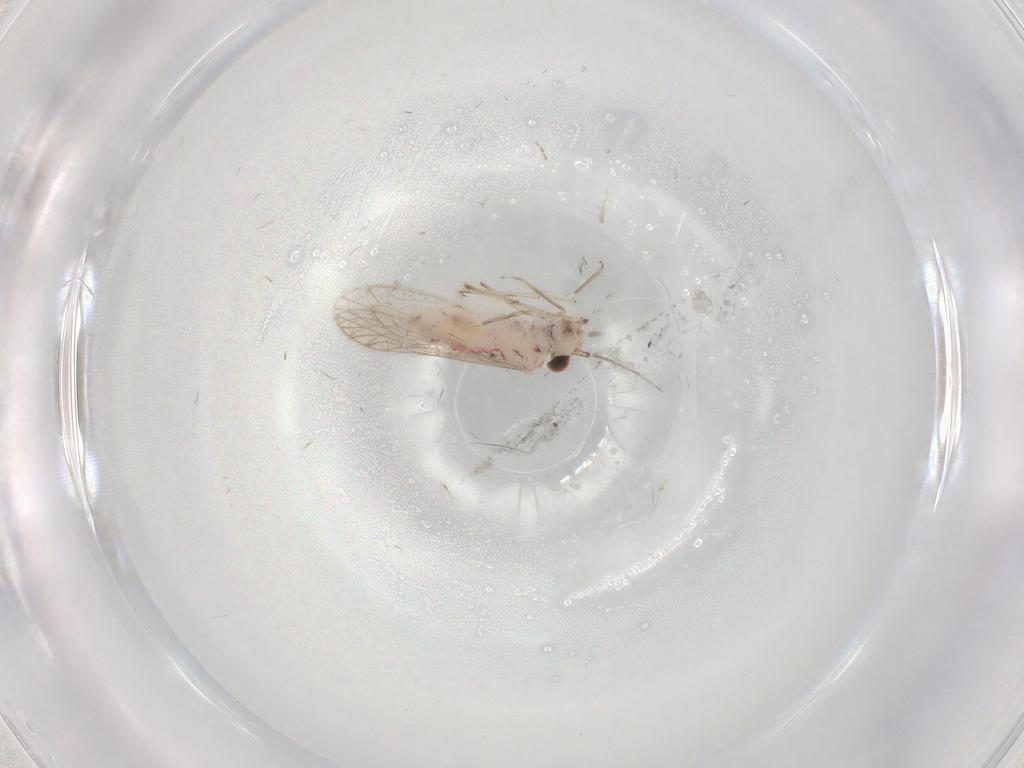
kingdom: Animalia
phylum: Arthropoda
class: Insecta
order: Psocodea
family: Caeciliusidae
